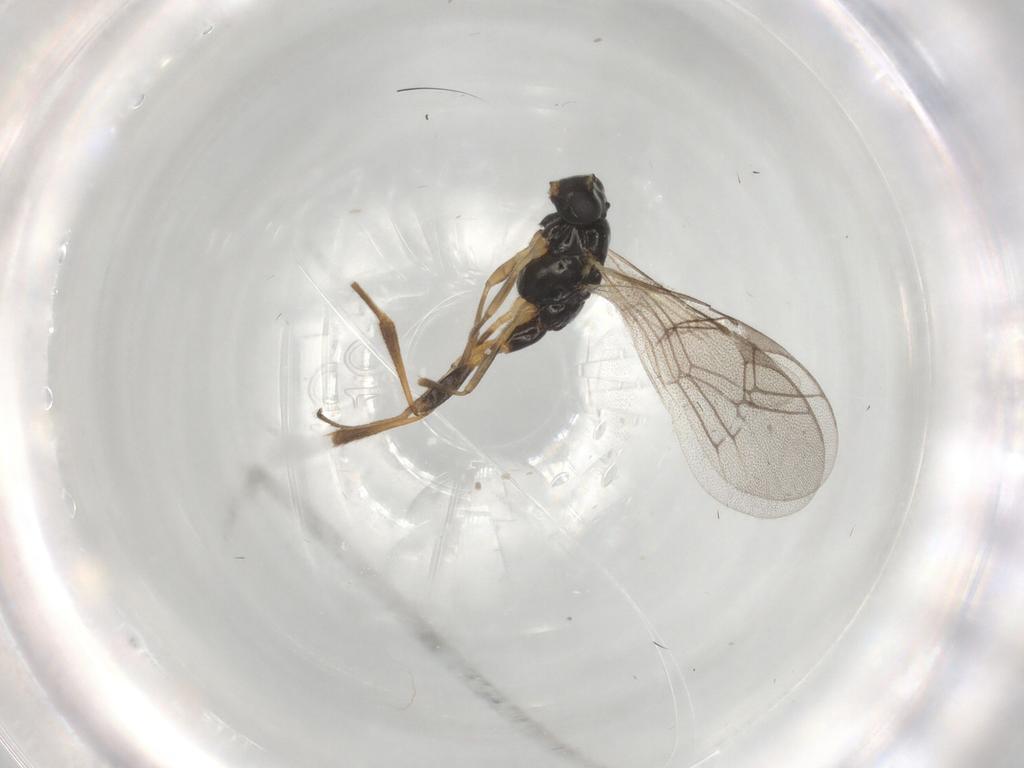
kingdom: Animalia
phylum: Arthropoda
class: Insecta
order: Hymenoptera
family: Ichneumonidae
